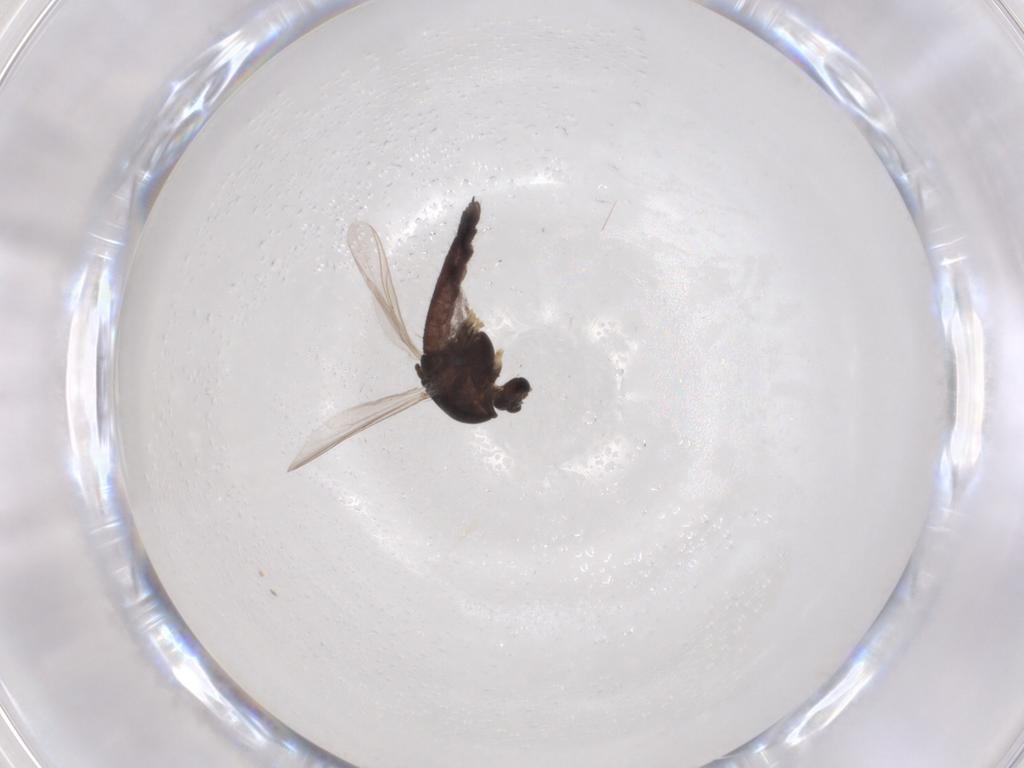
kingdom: Animalia
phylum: Arthropoda
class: Insecta
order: Diptera
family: Chironomidae
